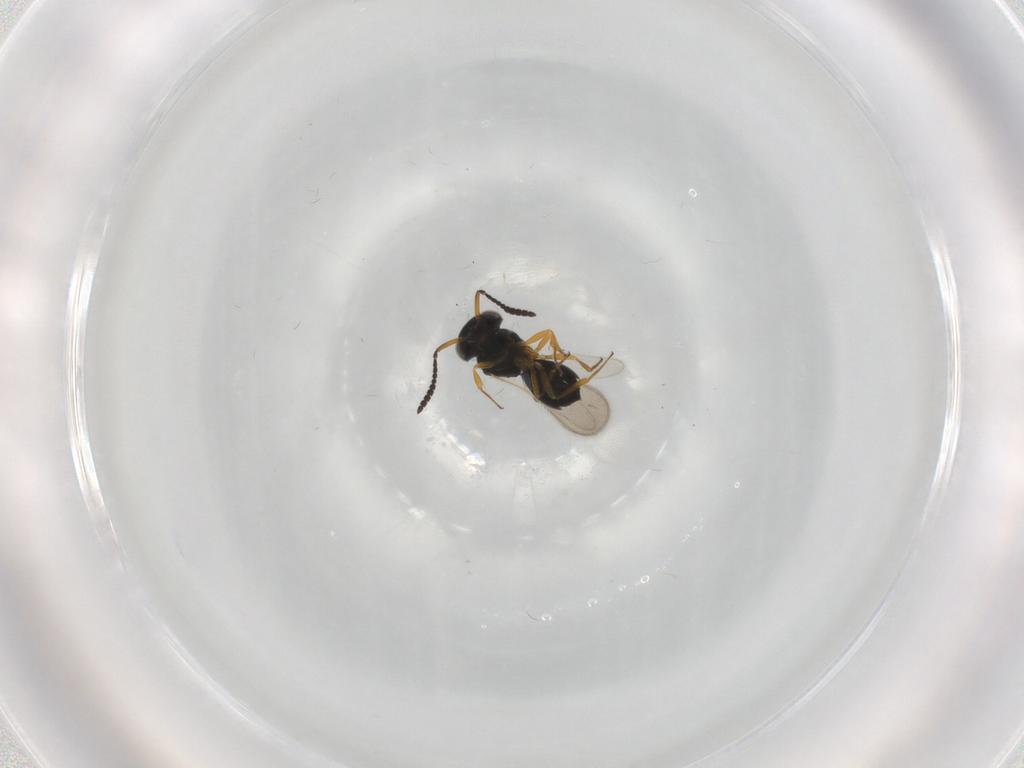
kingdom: Animalia
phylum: Arthropoda
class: Insecta
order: Hymenoptera
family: Scelionidae
